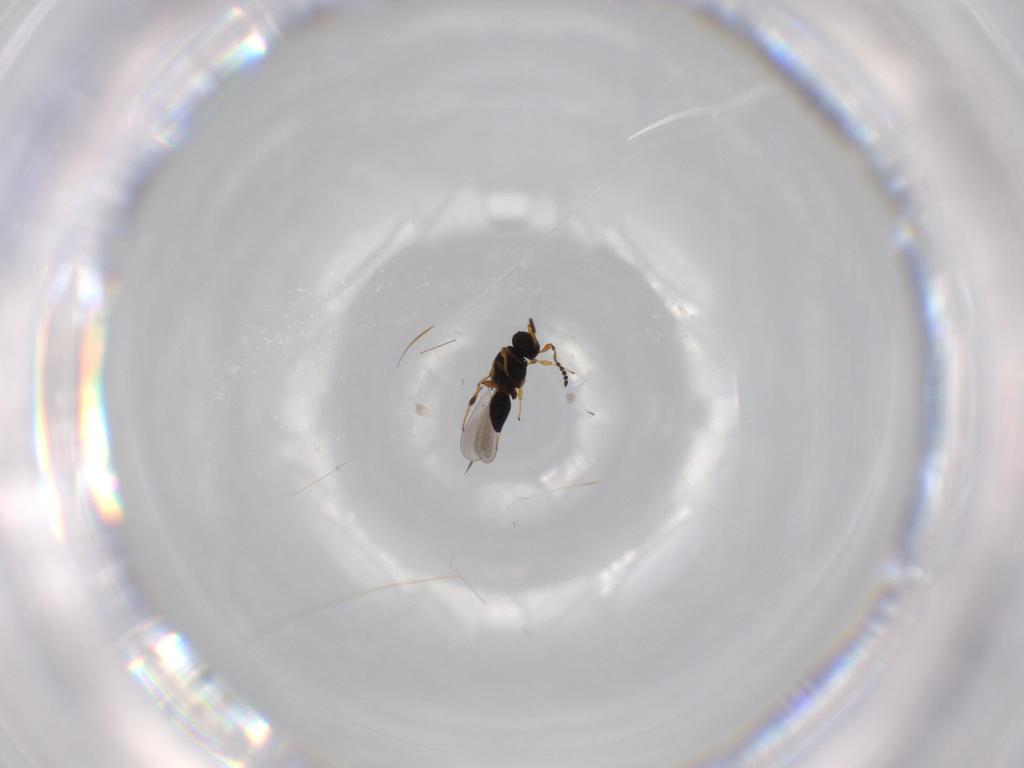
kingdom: Animalia
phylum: Arthropoda
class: Insecta
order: Hymenoptera
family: Platygastridae
